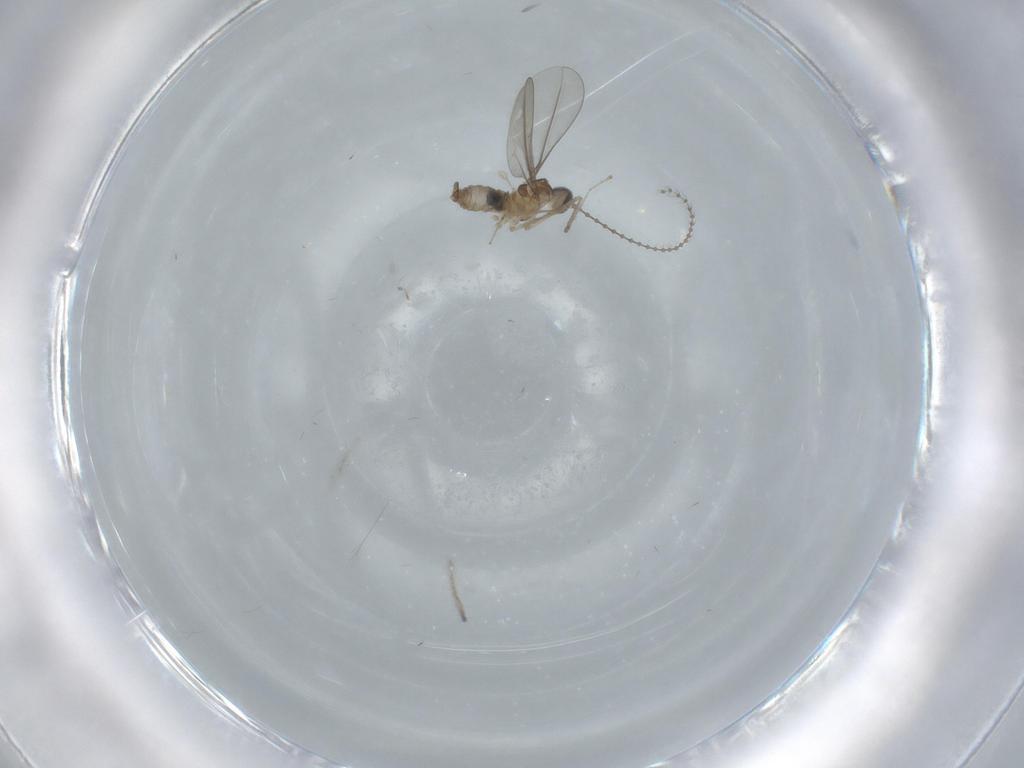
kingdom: Animalia
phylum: Arthropoda
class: Insecta
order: Diptera
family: Cecidomyiidae
